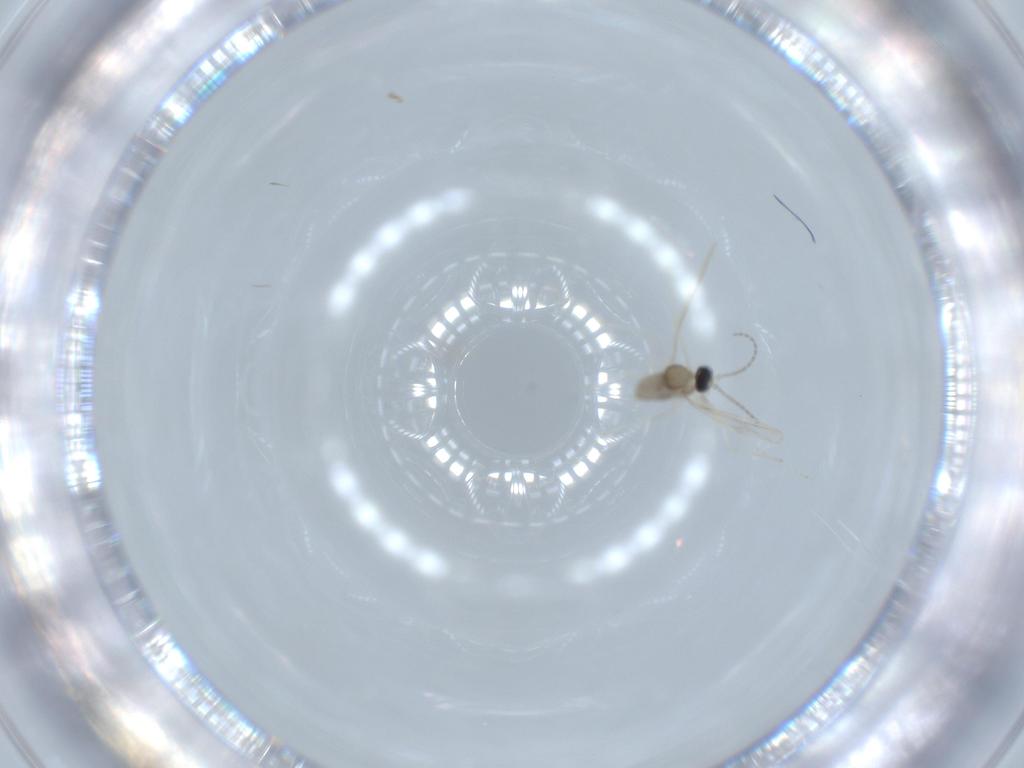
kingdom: Animalia
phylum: Arthropoda
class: Insecta
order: Diptera
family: Cecidomyiidae
